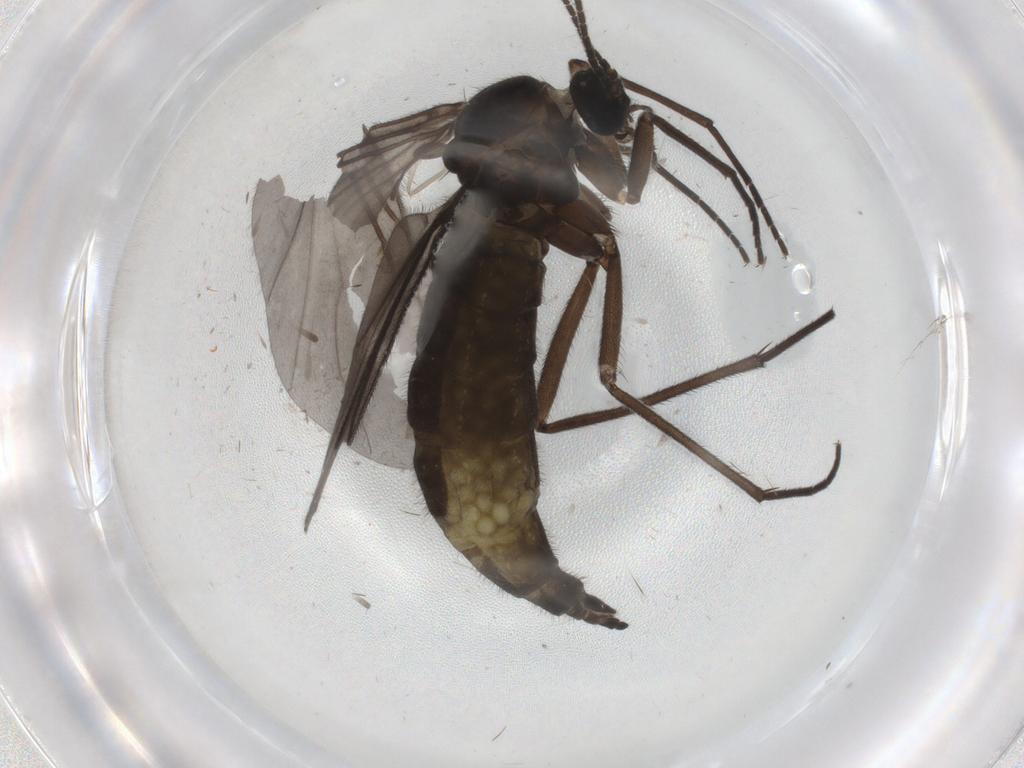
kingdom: Animalia
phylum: Arthropoda
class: Insecta
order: Diptera
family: Sciaridae
